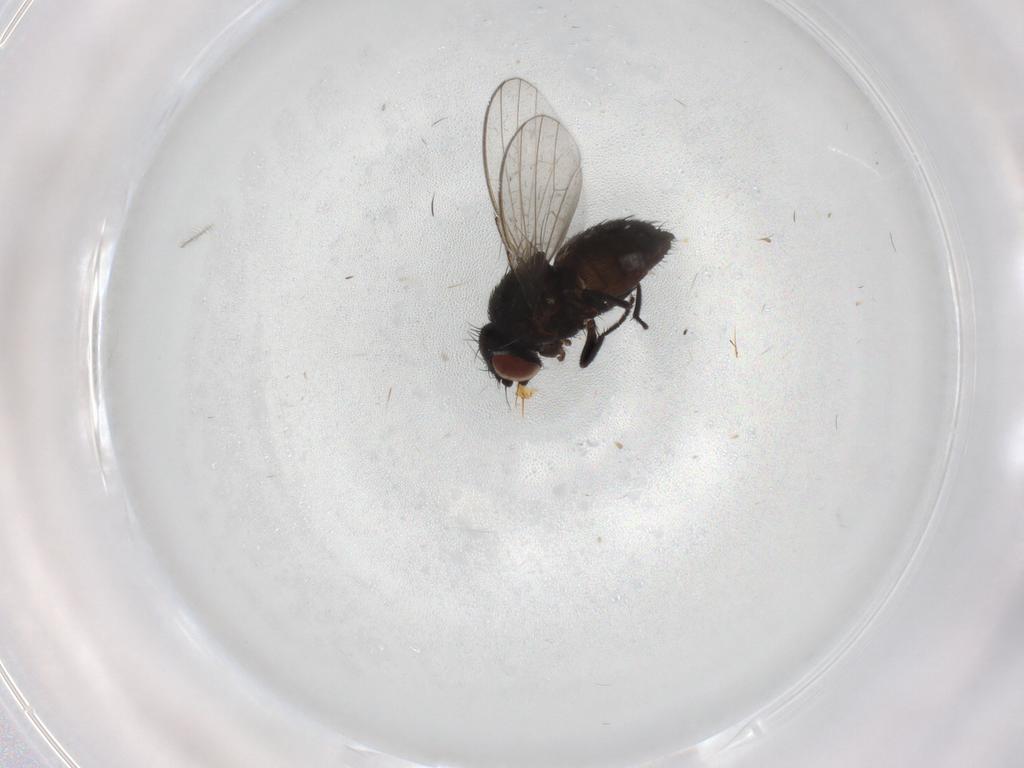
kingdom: Animalia
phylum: Arthropoda
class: Insecta
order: Diptera
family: Milichiidae
